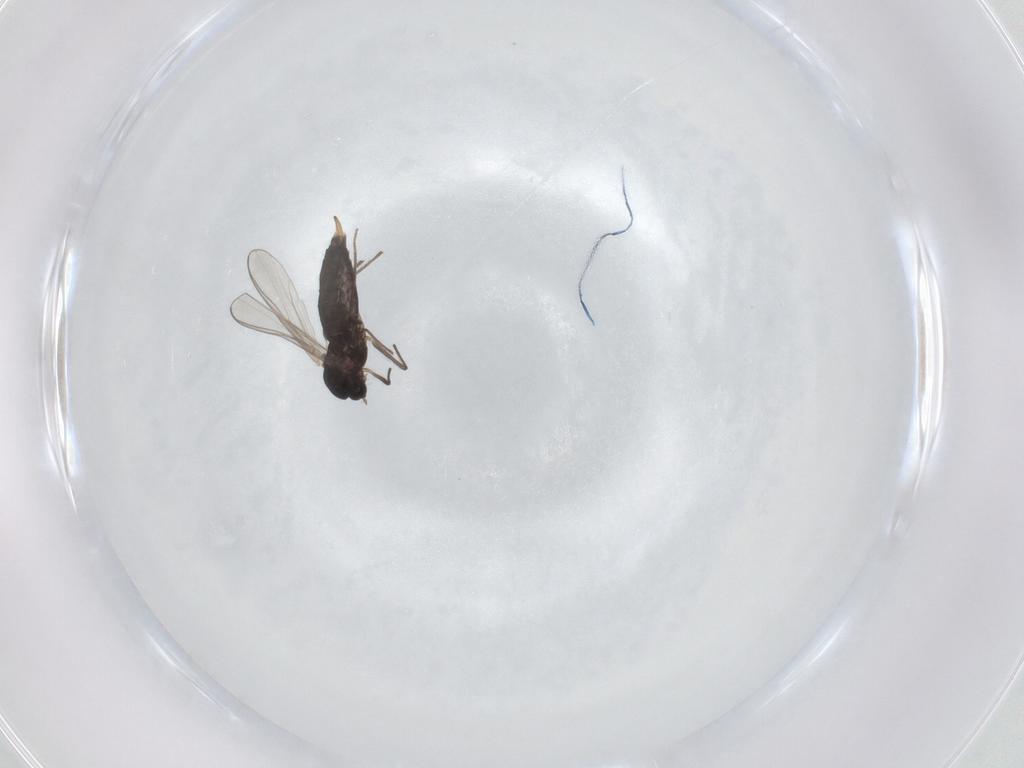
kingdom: Animalia
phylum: Arthropoda
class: Insecta
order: Diptera
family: Chironomidae
